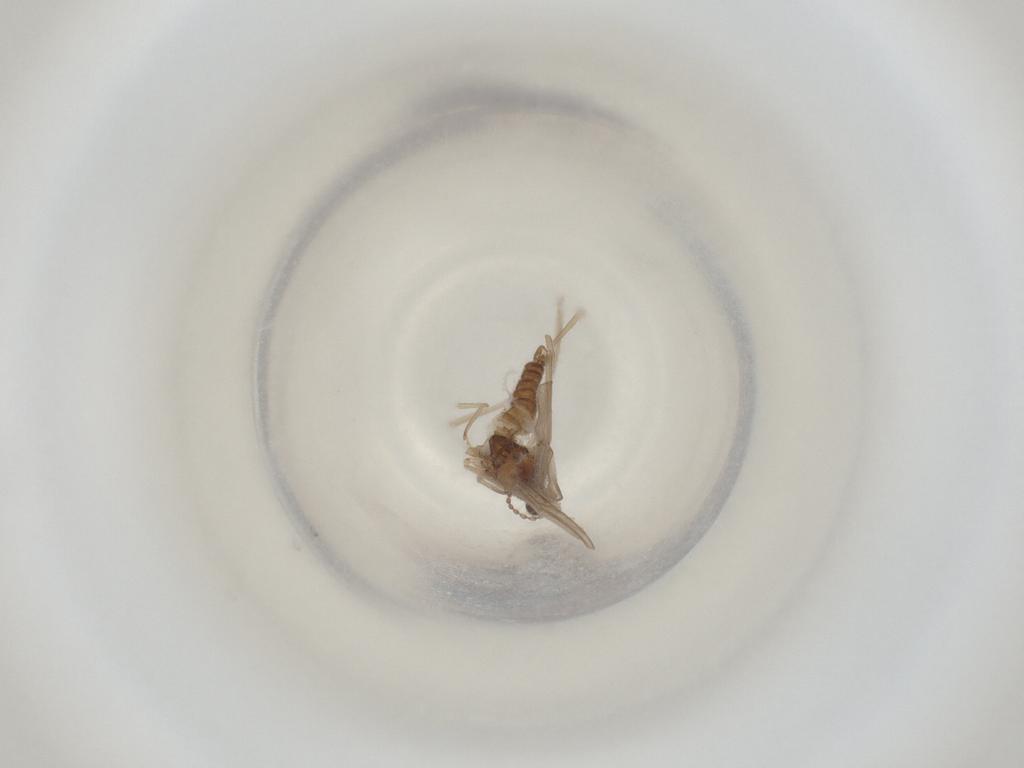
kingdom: Animalia
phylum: Arthropoda
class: Insecta
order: Diptera
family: Cecidomyiidae
